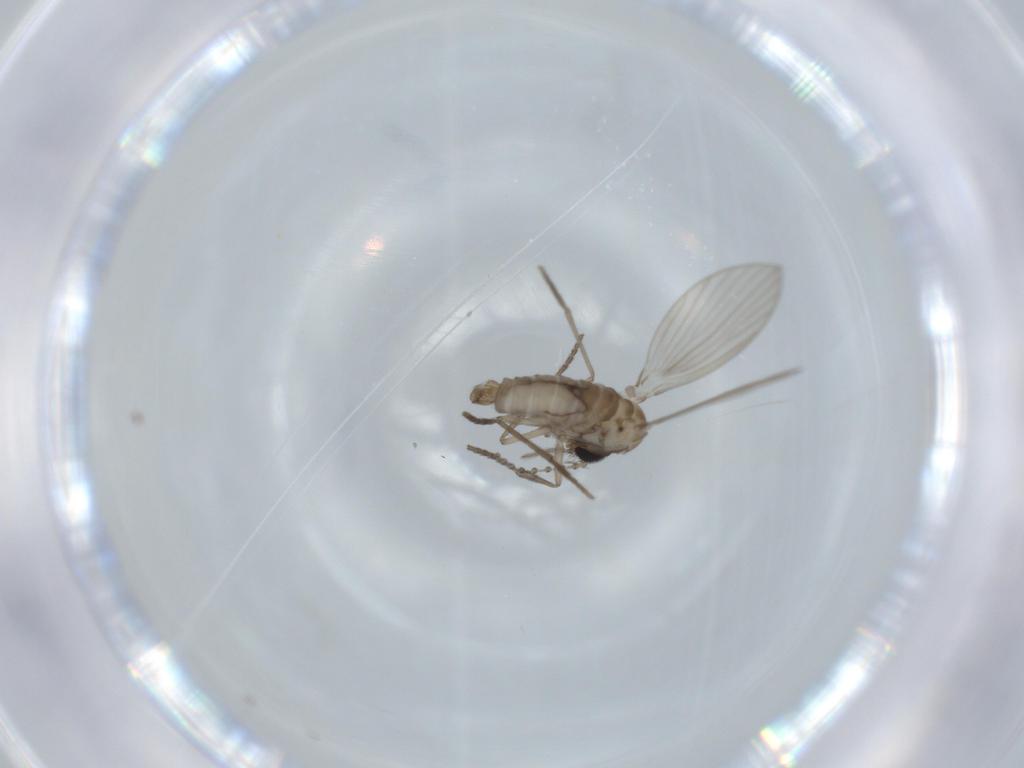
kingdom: Animalia
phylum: Arthropoda
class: Insecta
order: Diptera
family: Psychodidae
